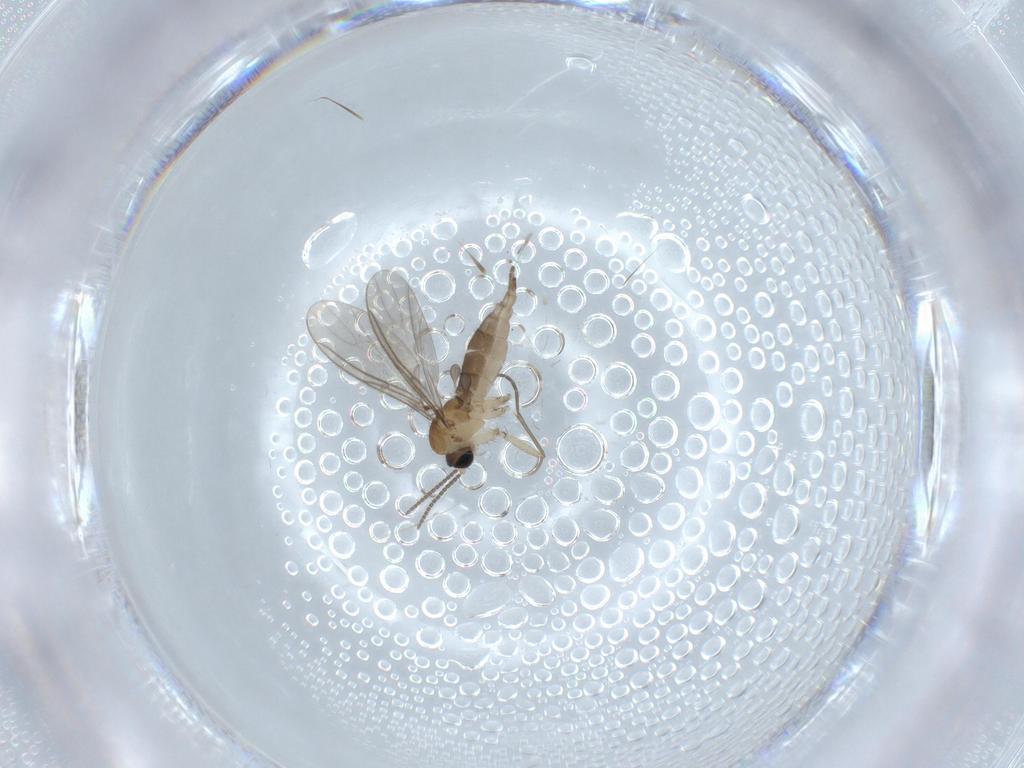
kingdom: Animalia
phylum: Arthropoda
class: Insecta
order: Diptera
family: Sciaridae
